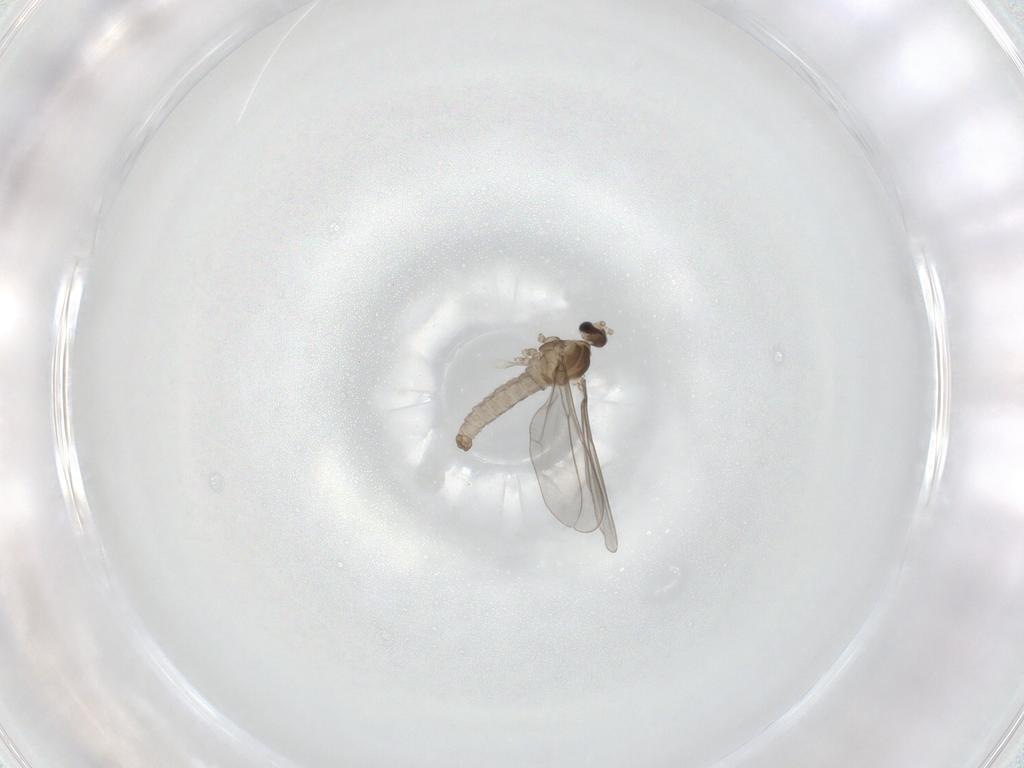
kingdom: Animalia
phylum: Arthropoda
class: Insecta
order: Diptera
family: Cecidomyiidae
